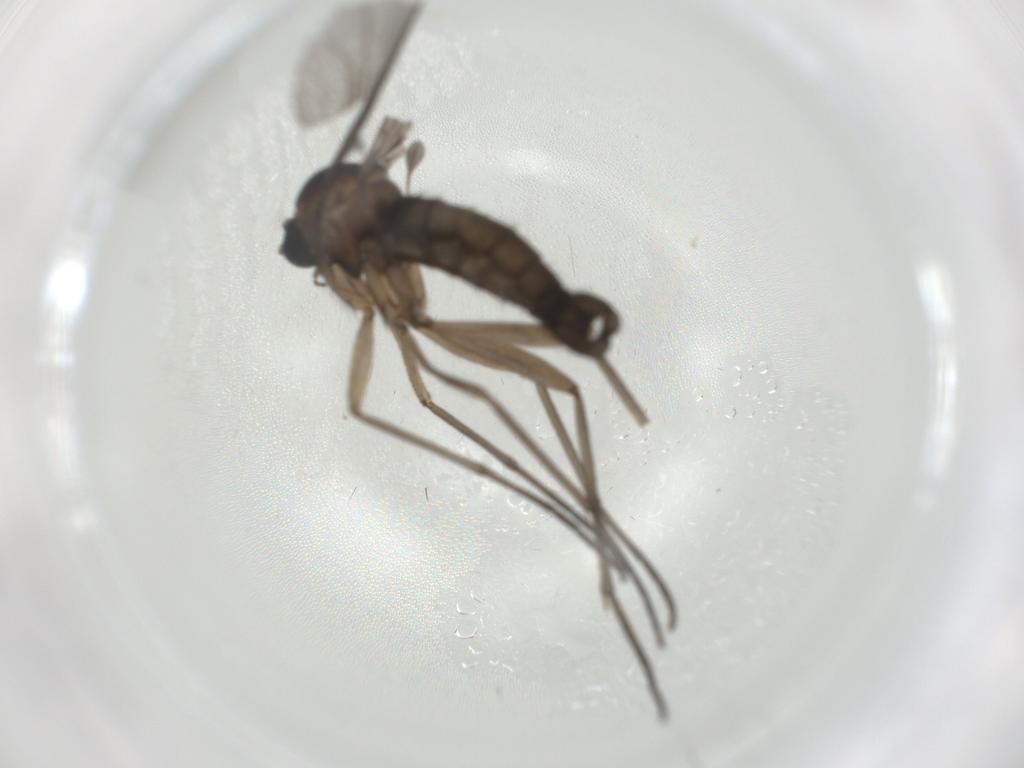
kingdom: Animalia
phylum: Arthropoda
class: Insecta
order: Diptera
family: Sciaridae
